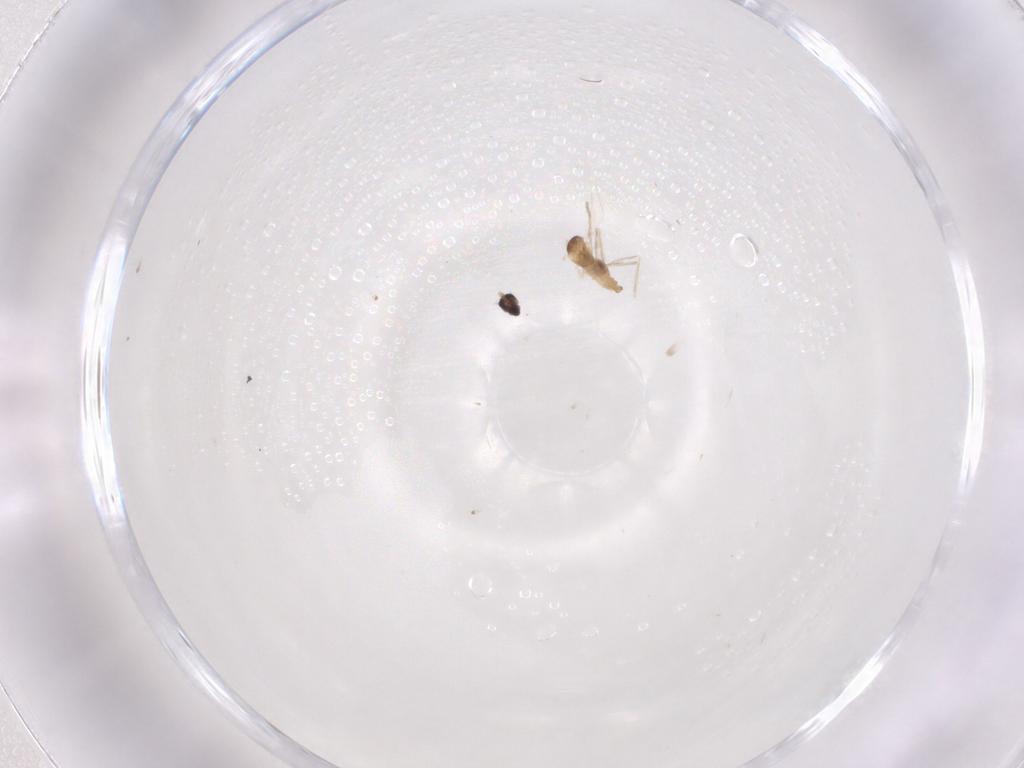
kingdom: Animalia
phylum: Arthropoda
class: Insecta
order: Diptera
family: Cecidomyiidae
